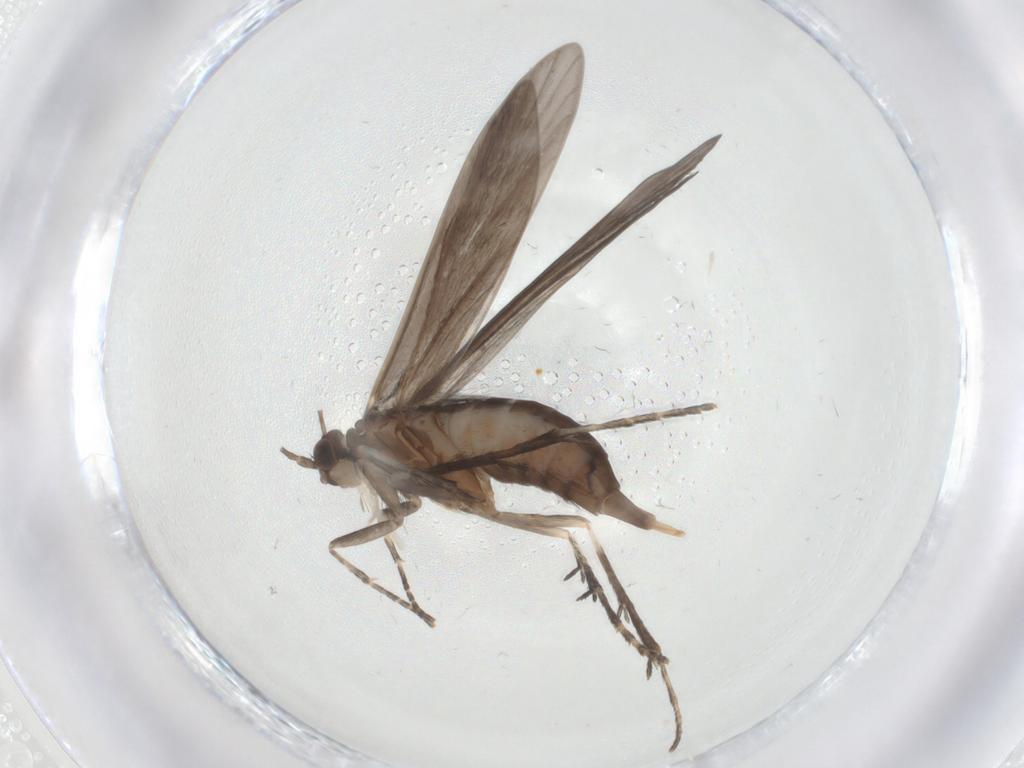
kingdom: Animalia
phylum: Arthropoda
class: Insecta
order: Trichoptera
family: Xiphocentronidae
